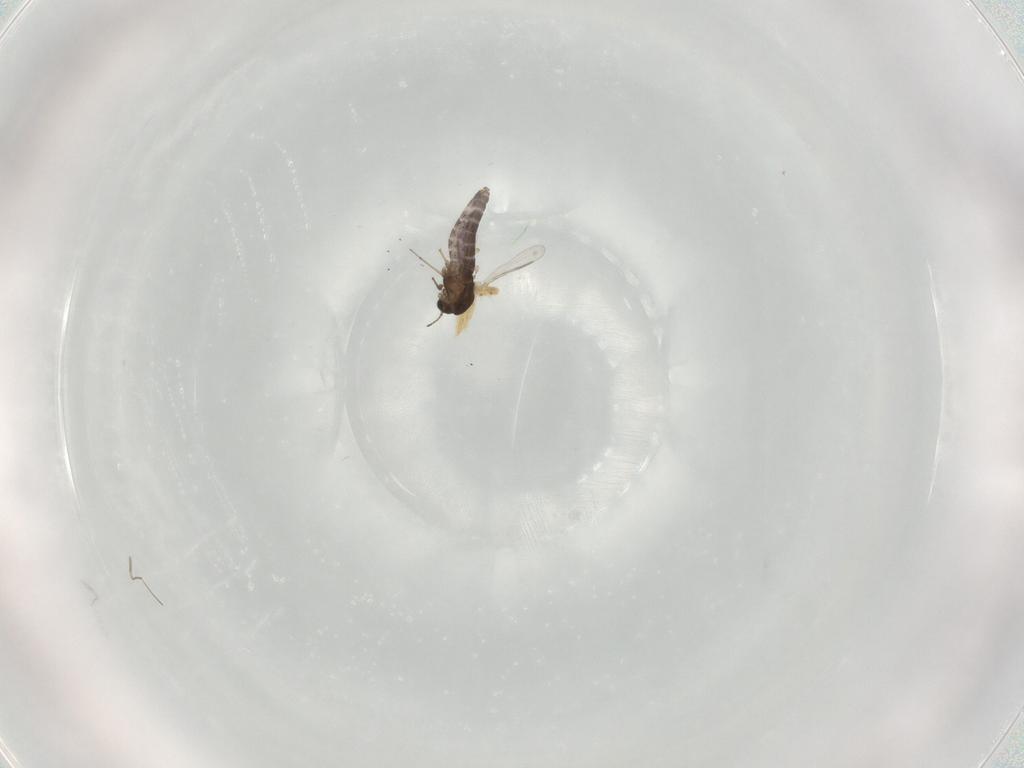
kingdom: Animalia
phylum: Arthropoda
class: Insecta
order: Diptera
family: Chironomidae
